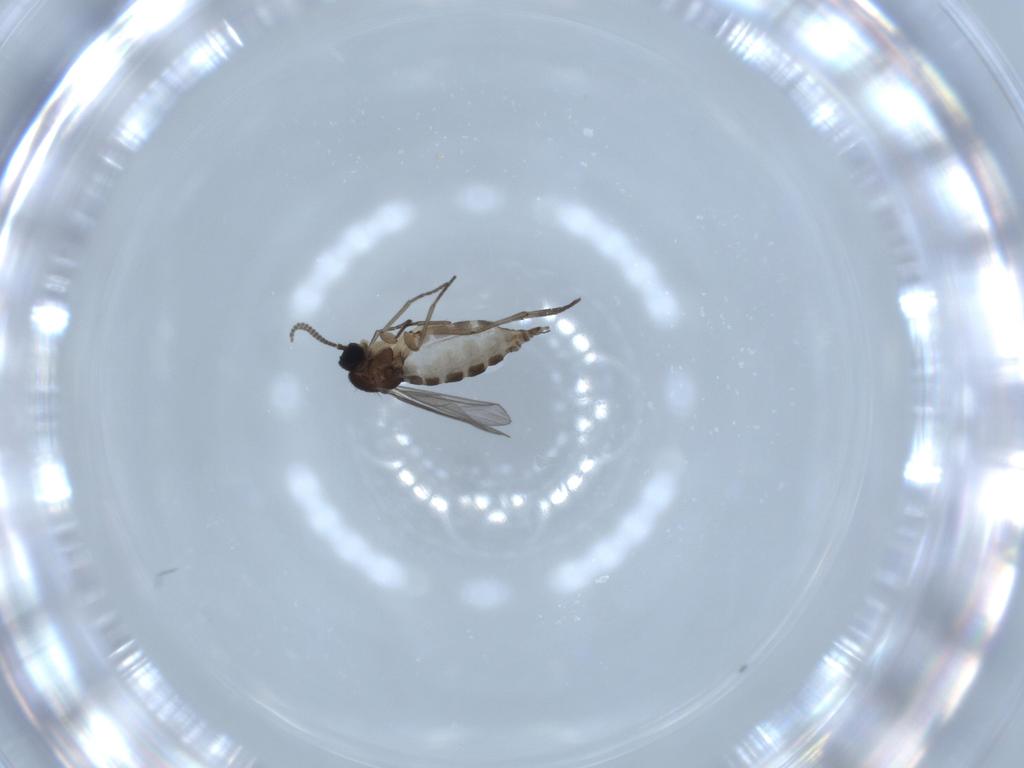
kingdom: Animalia
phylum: Arthropoda
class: Insecta
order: Diptera
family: Sciaridae
